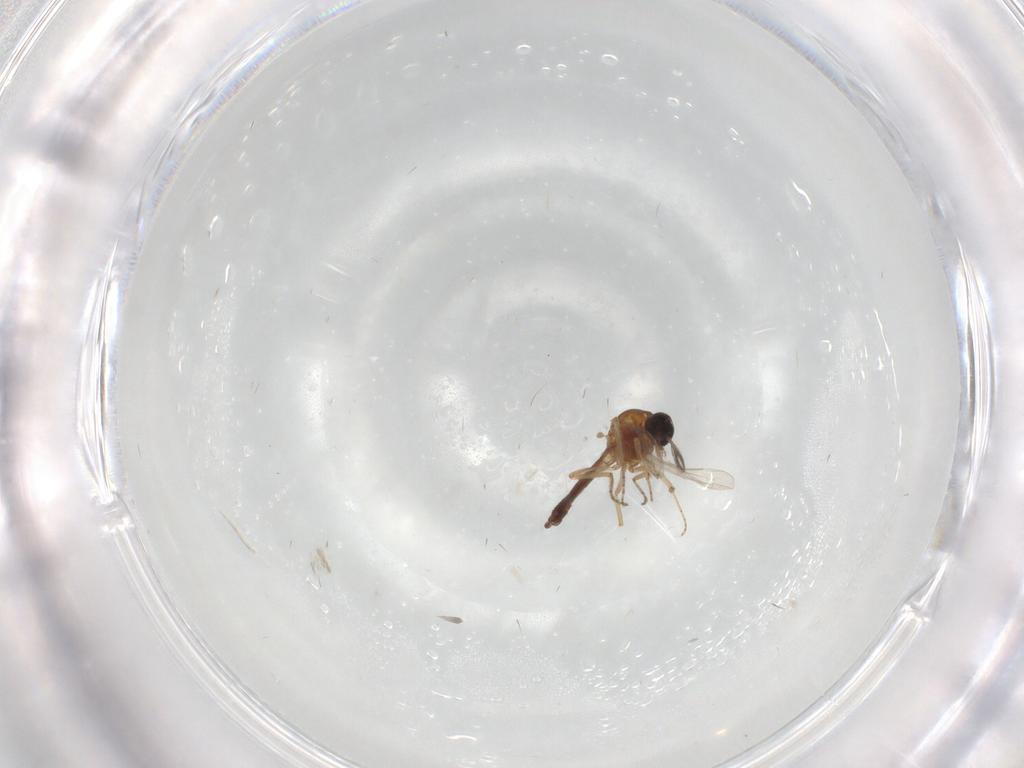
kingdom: Animalia
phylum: Arthropoda
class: Insecta
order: Diptera
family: Ceratopogonidae
